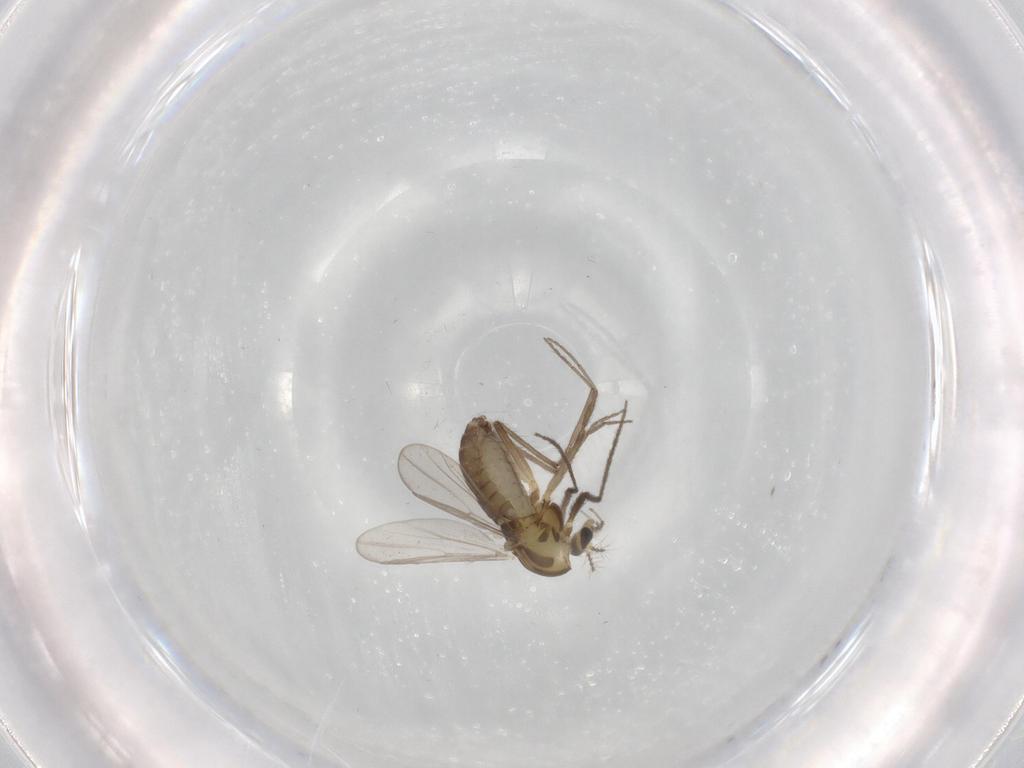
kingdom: Animalia
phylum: Arthropoda
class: Insecta
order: Diptera
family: Chironomidae
